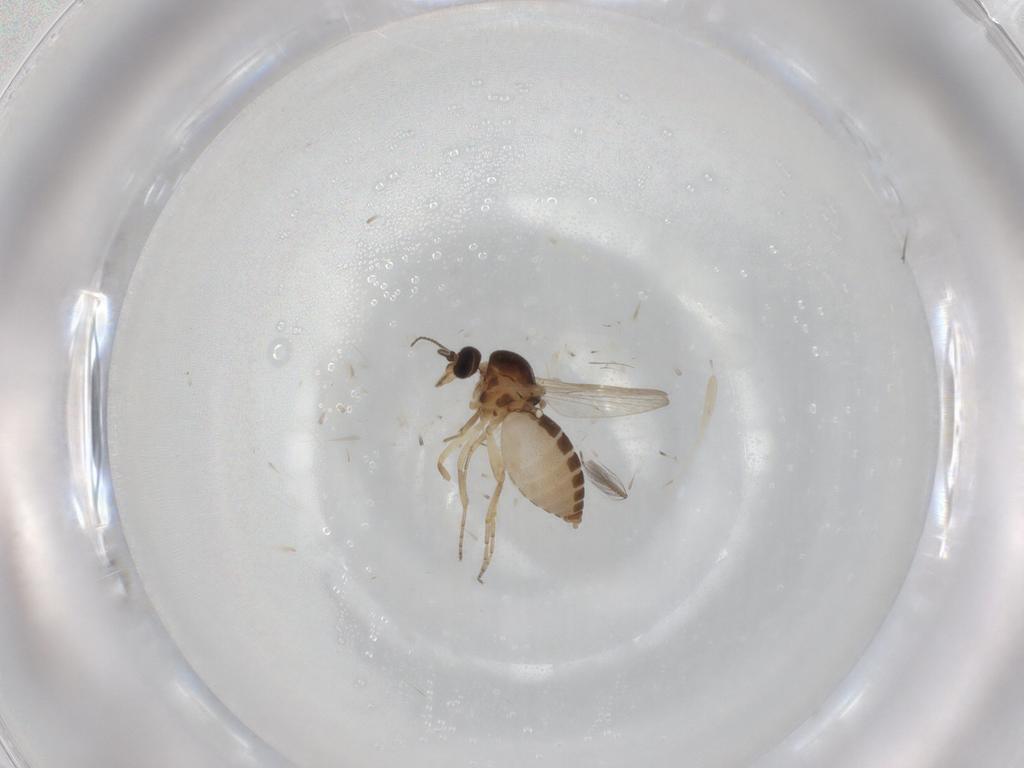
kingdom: Animalia
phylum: Arthropoda
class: Insecta
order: Diptera
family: Ceratopogonidae
